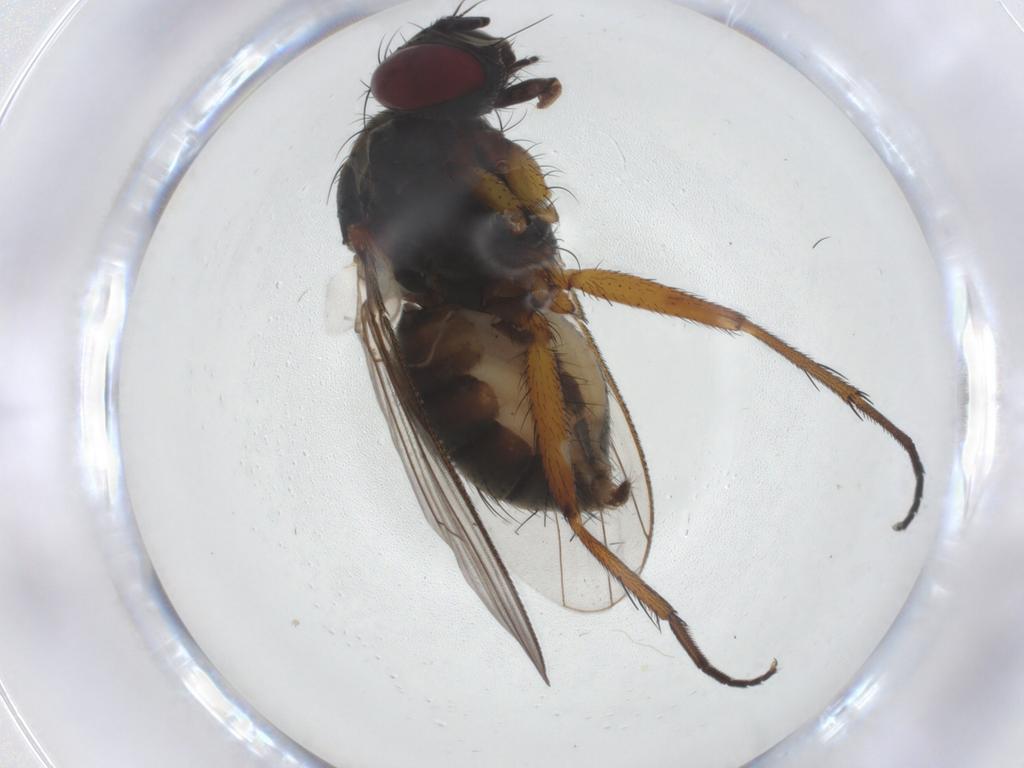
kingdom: Animalia
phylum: Arthropoda
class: Insecta
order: Diptera
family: Muscidae
